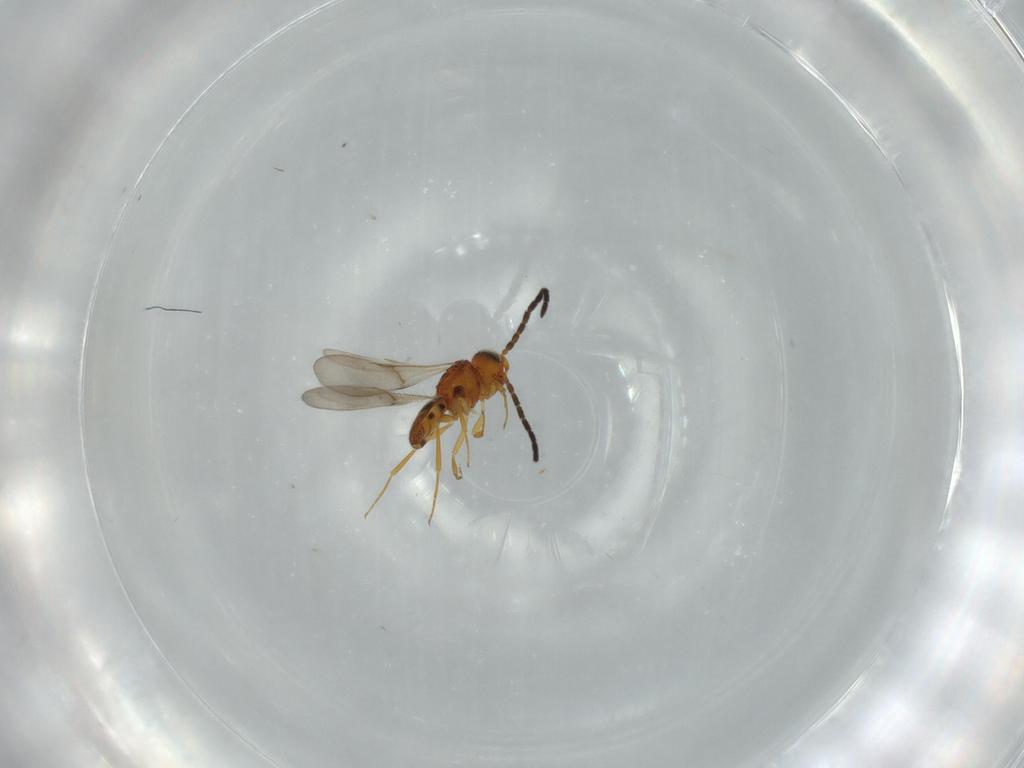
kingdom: Animalia
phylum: Arthropoda
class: Insecta
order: Hymenoptera
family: Scelionidae
